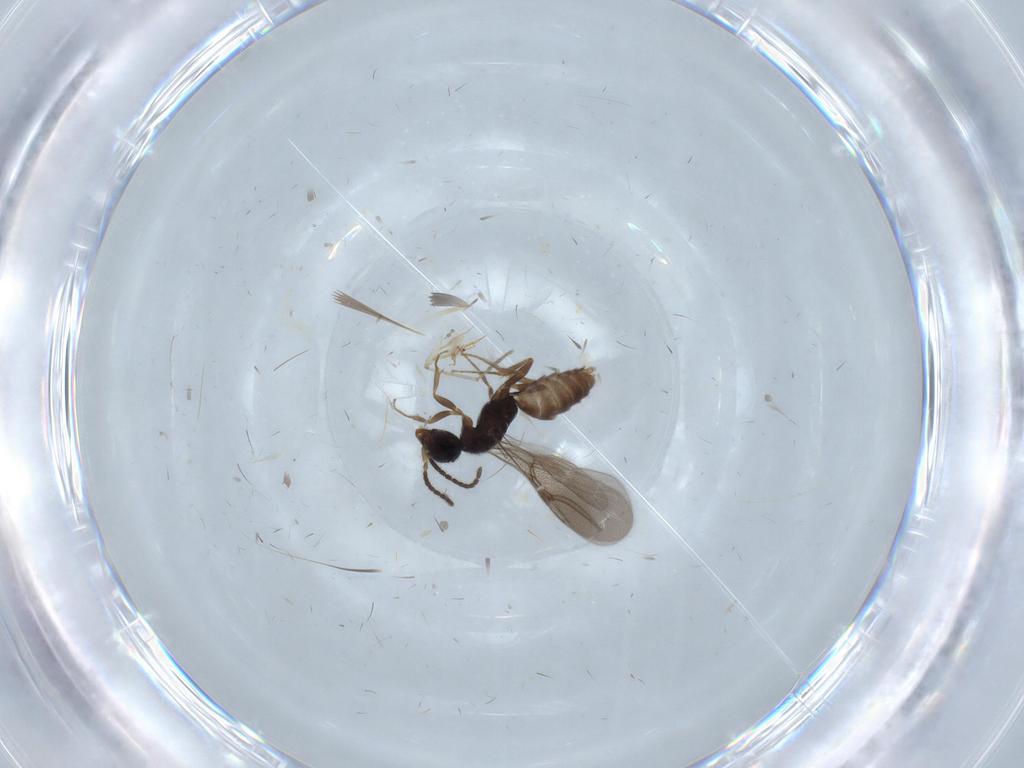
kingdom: Animalia
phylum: Arthropoda
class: Insecta
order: Hymenoptera
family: Bethylidae
